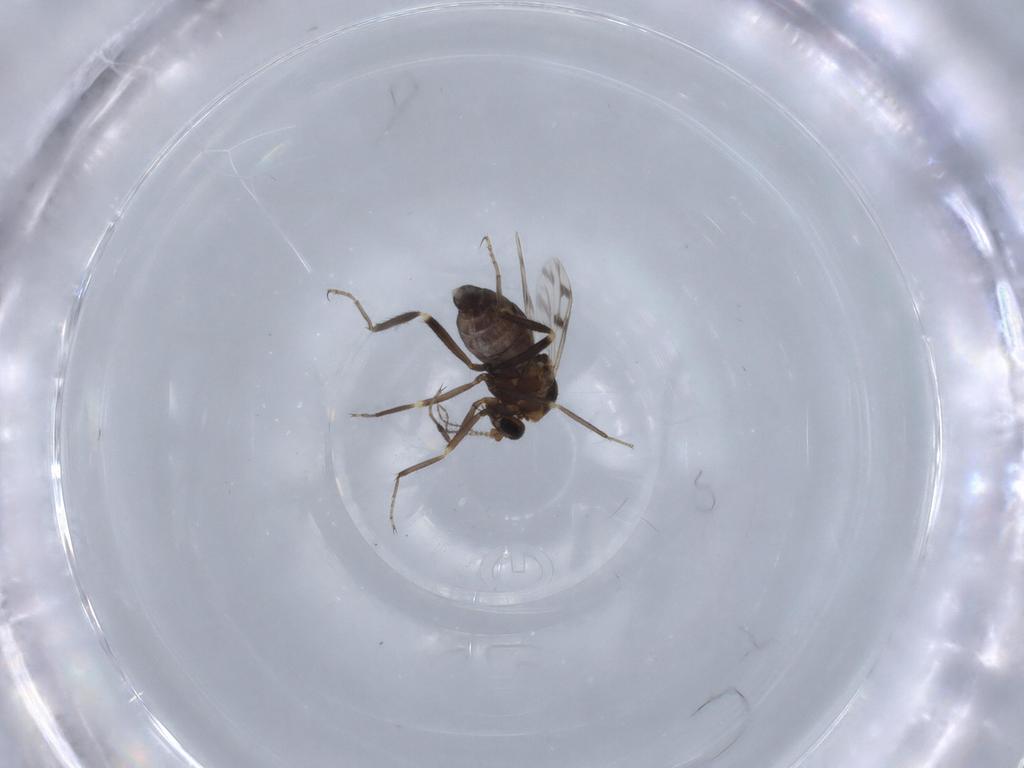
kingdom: Animalia
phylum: Arthropoda
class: Insecta
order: Diptera
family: Ceratopogonidae
